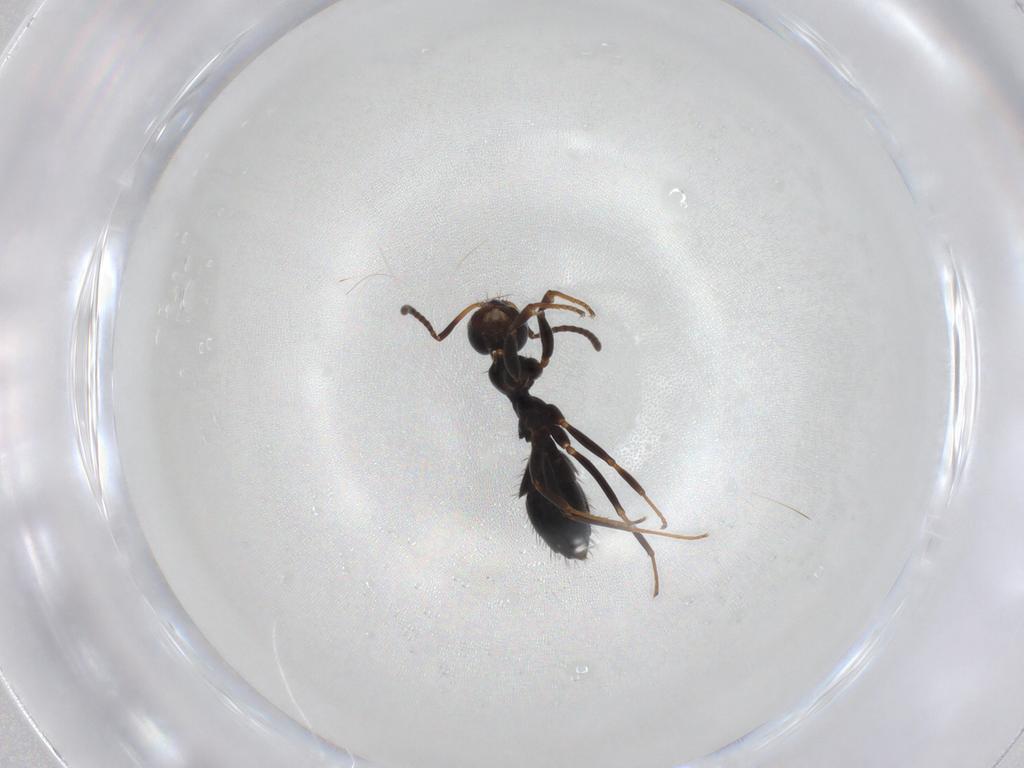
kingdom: Animalia
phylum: Arthropoda
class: Insecta
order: Hymenoptera
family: Formicidae
